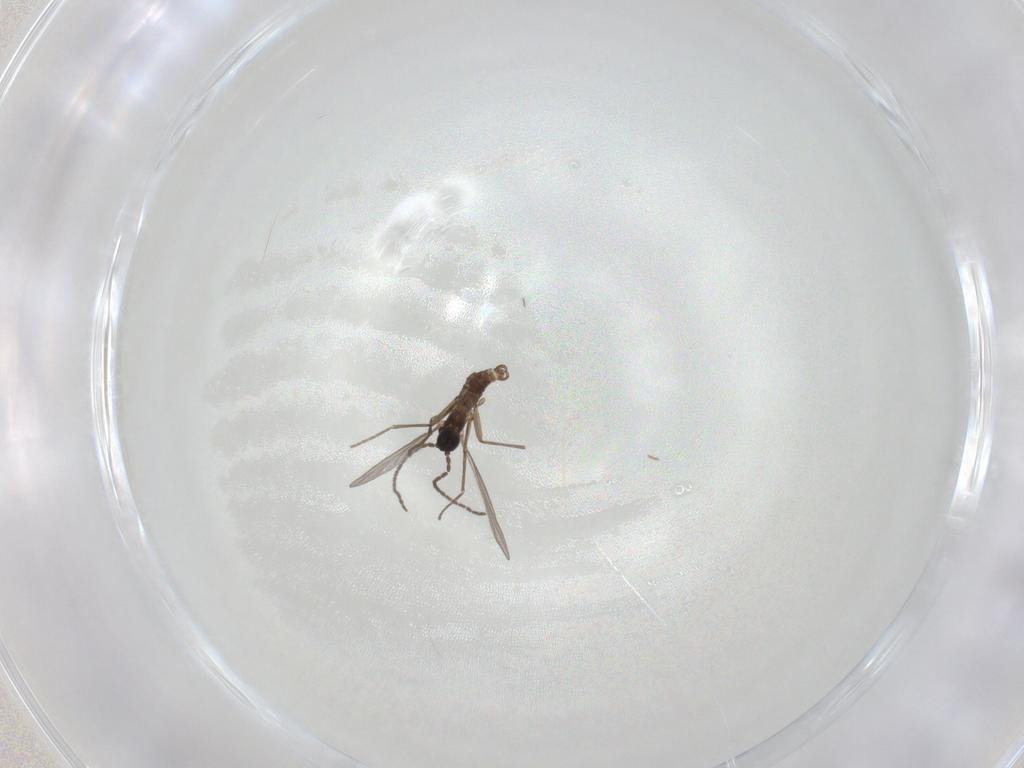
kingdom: Animalia
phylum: Arthropoda
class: Insecta
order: Diptera
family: Sciaridae
